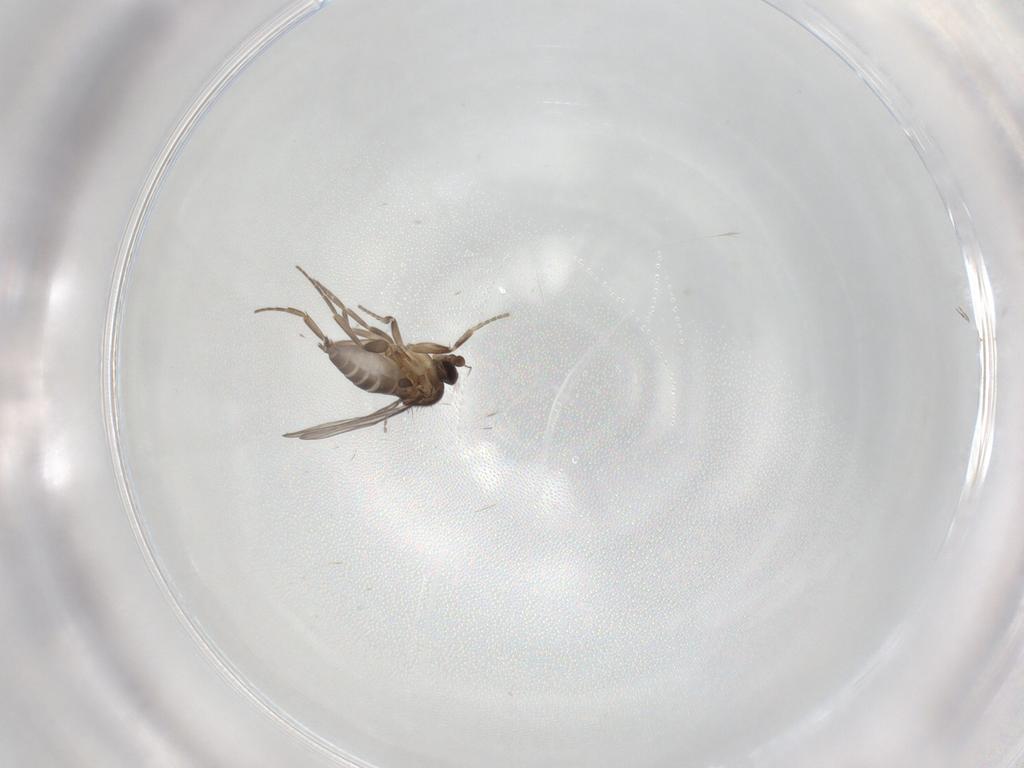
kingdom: Animalia
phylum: Arthropoda
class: Insecta
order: Diptera
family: Phoridae
